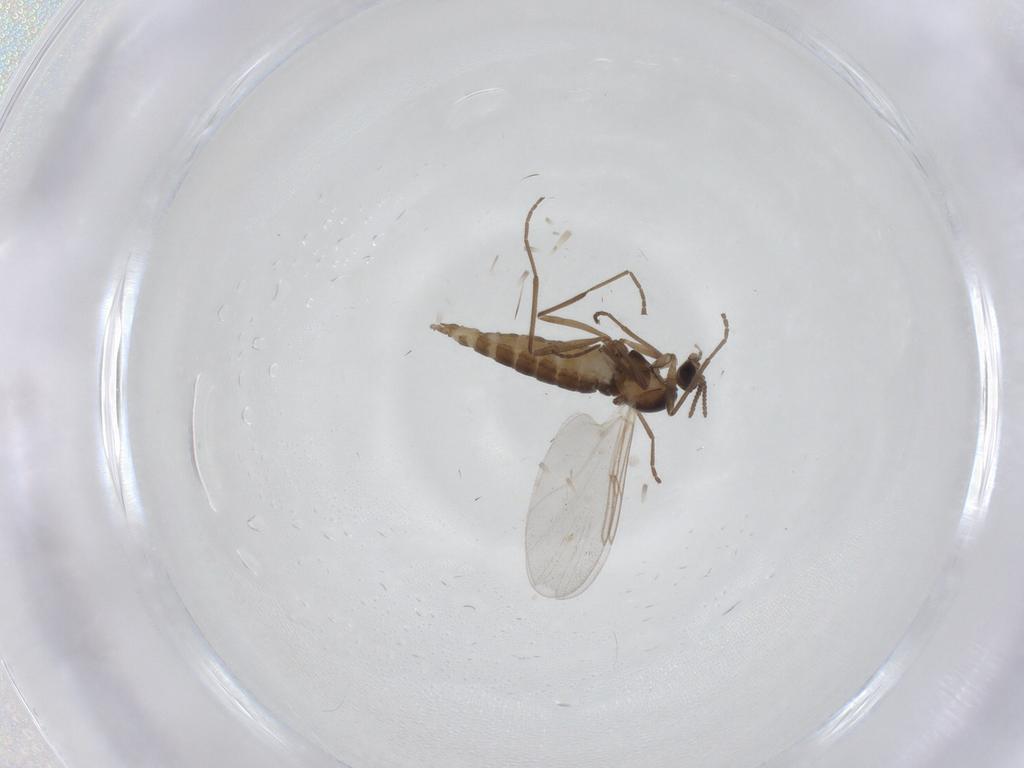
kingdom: Animalia
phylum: Arthropoda
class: Insecta
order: Diptera
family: Cecidomyiidae
